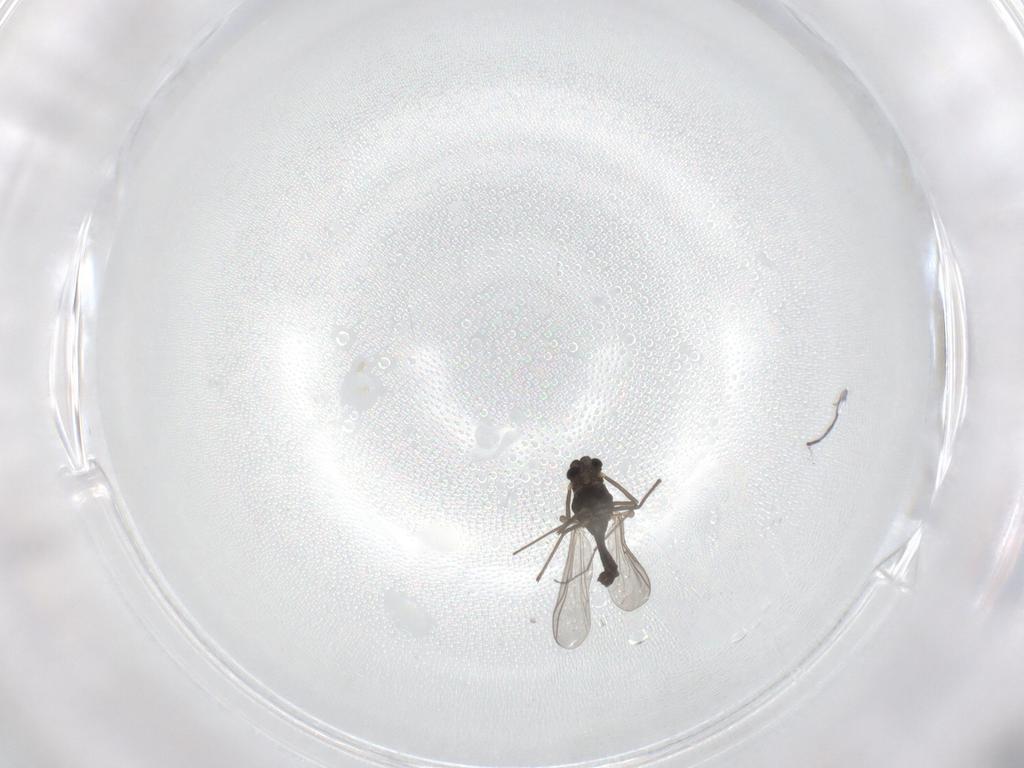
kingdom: Animalia
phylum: Arthropoda
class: Insecta
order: Diptera
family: Chironomidae
